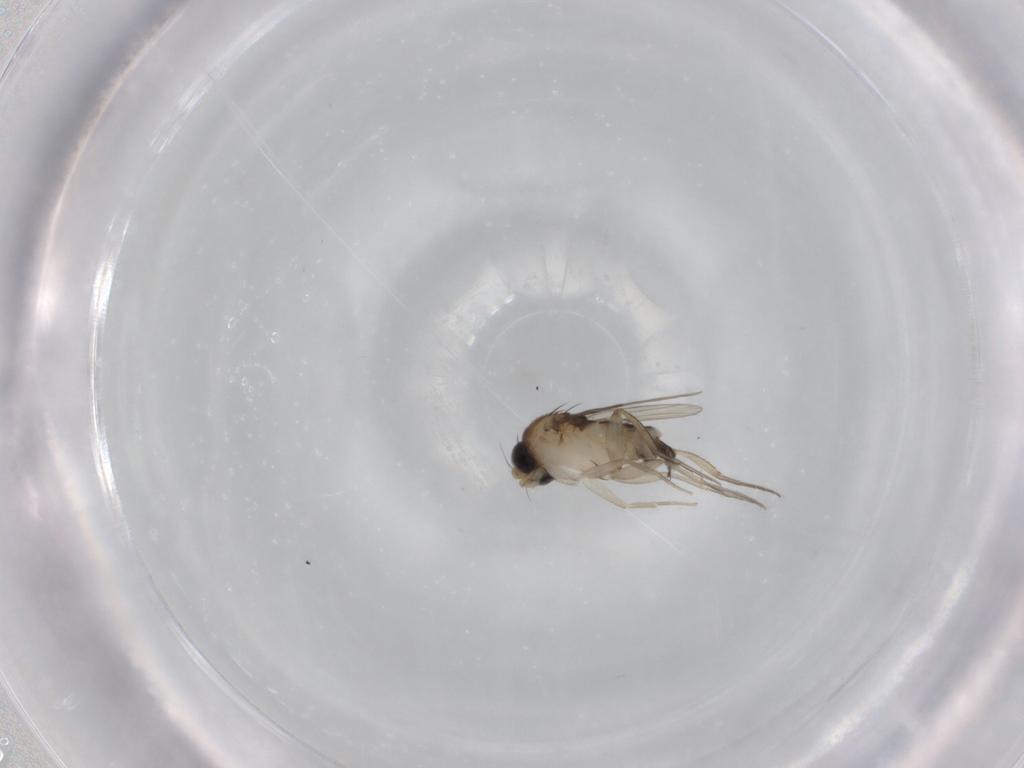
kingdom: Animalia
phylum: Arthropoda
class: Insecta
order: Diptera
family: Phoridae
